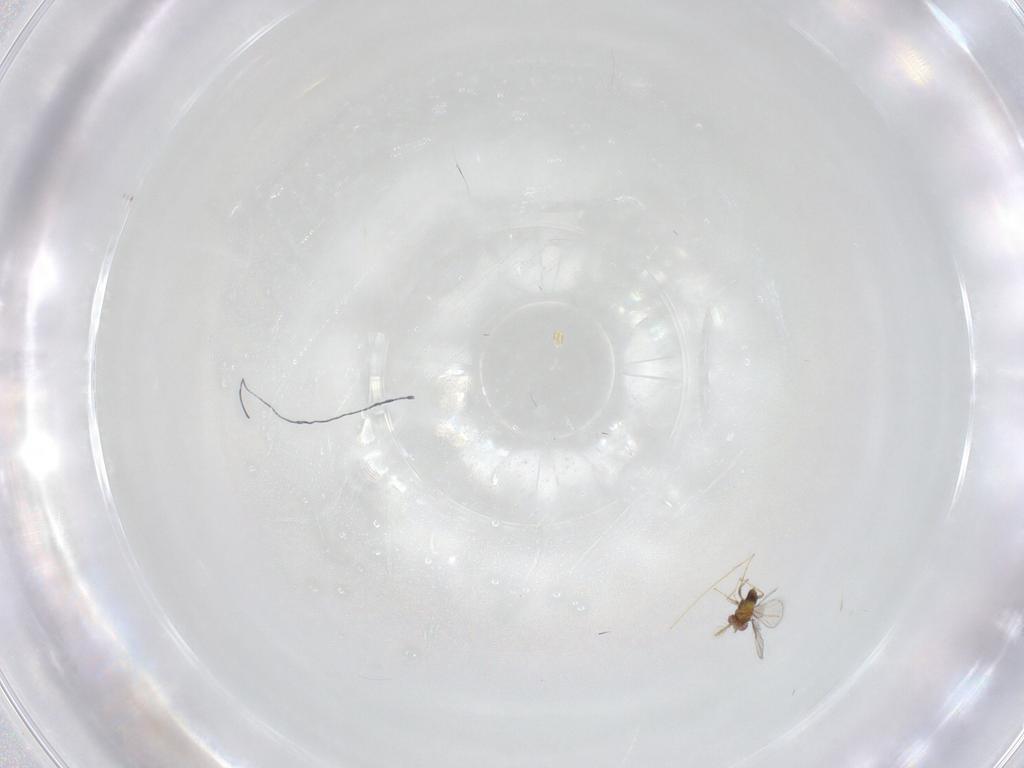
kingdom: Animalia
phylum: Arthropoda
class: Insecta
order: Hymenoptera
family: Trichogrammatidae
